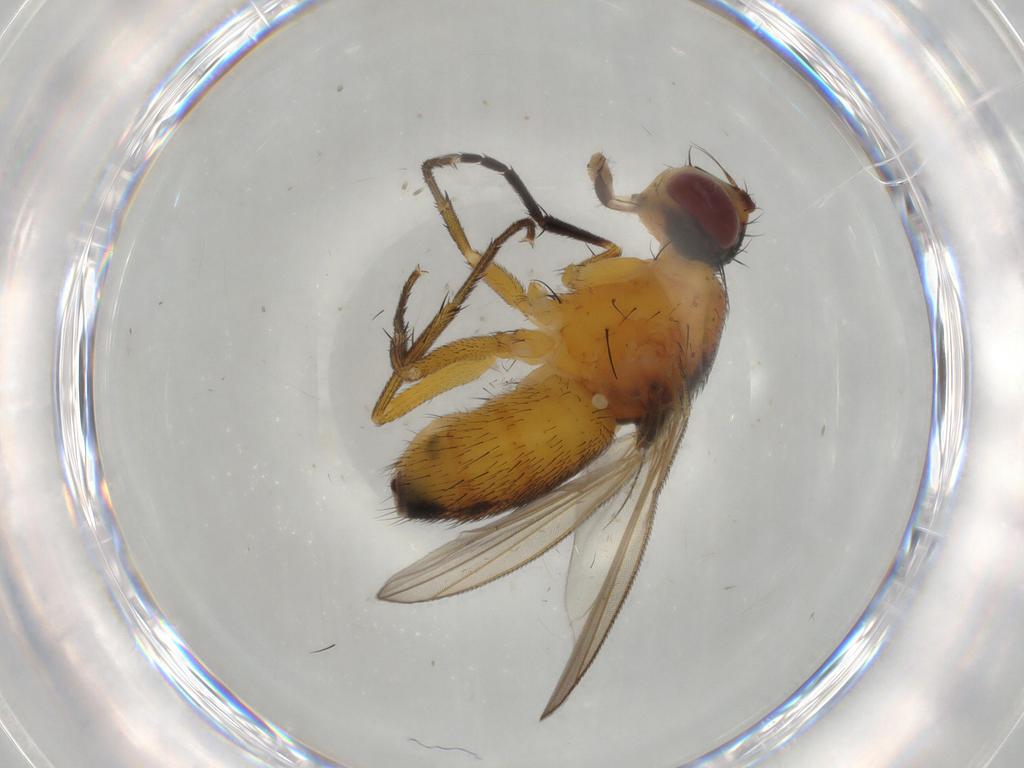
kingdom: Animalia
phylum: Arthropoda
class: Insecta
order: Diptera
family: Muscidae
